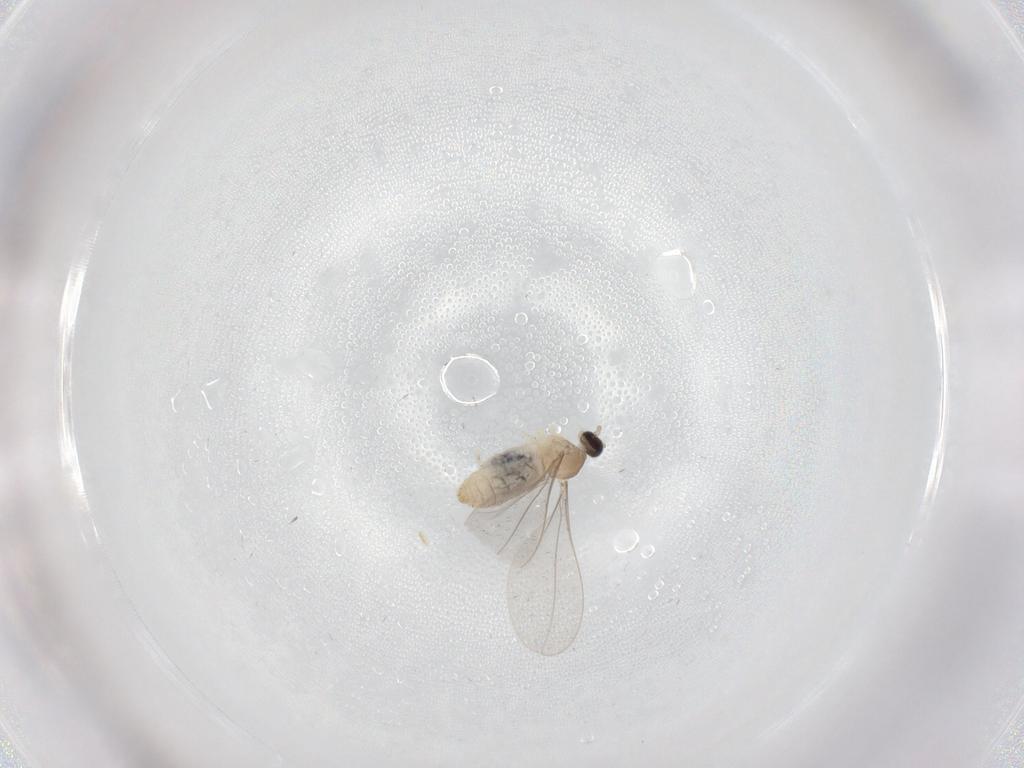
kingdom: Animalia
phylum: Arthropoda
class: Insecta
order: Diptera
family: Cecidomyiidae
